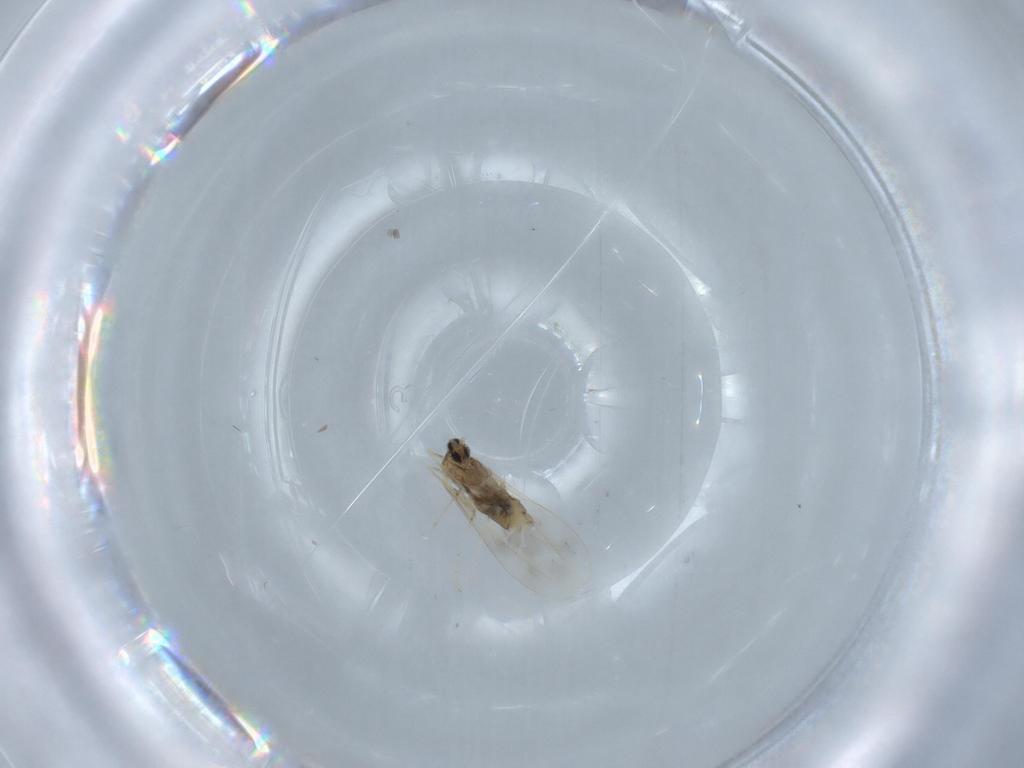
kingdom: Animalia
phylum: Arthropoda
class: Insecta
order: Diptera
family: Cecidomyiidae
